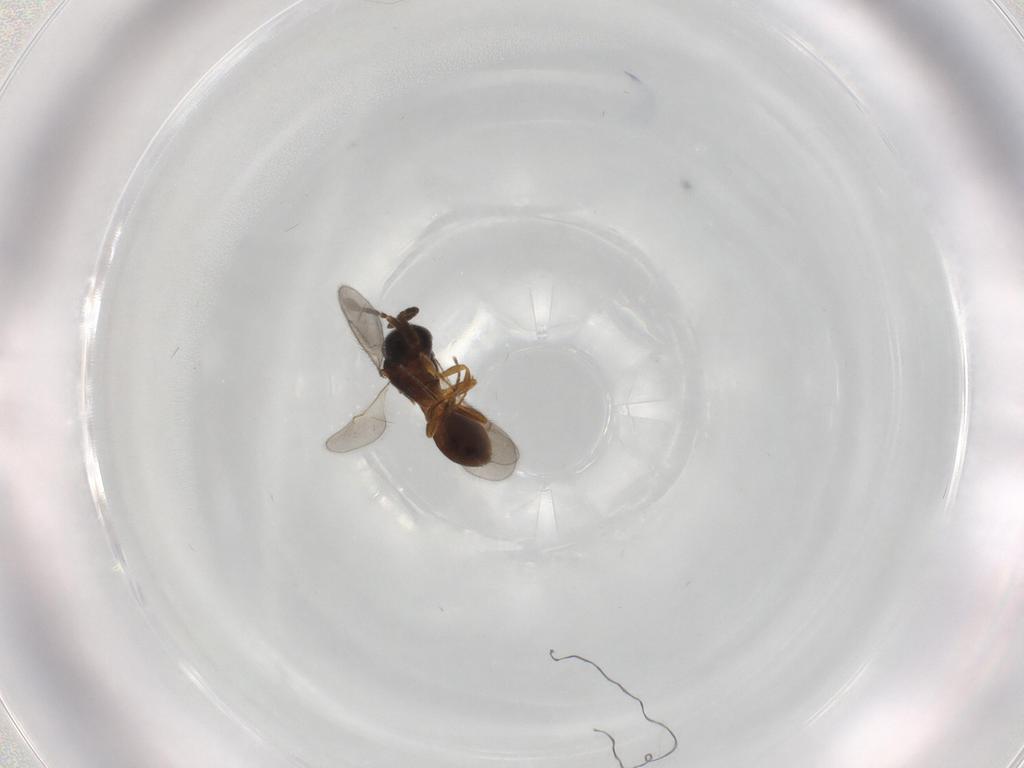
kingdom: Animalia
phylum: Arthropoda
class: Insecta
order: Hymenoptera
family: Scelionidae
